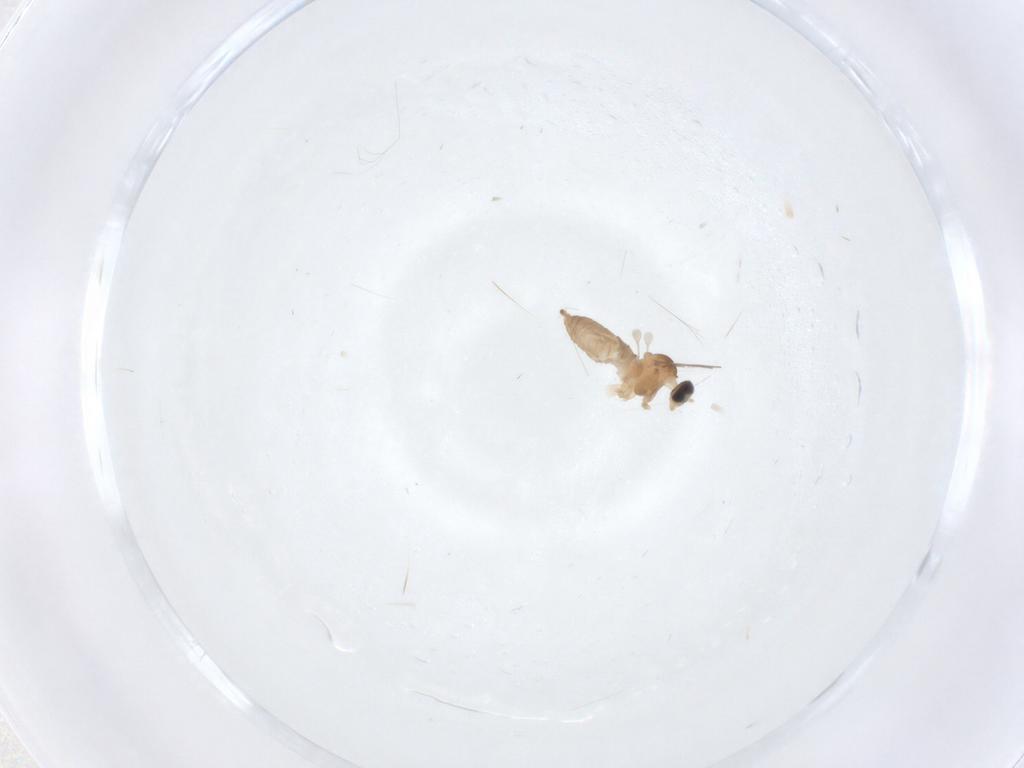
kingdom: Animalia
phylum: Arthropoda
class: Insecta
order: Diptera
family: Cecidomyiidae
